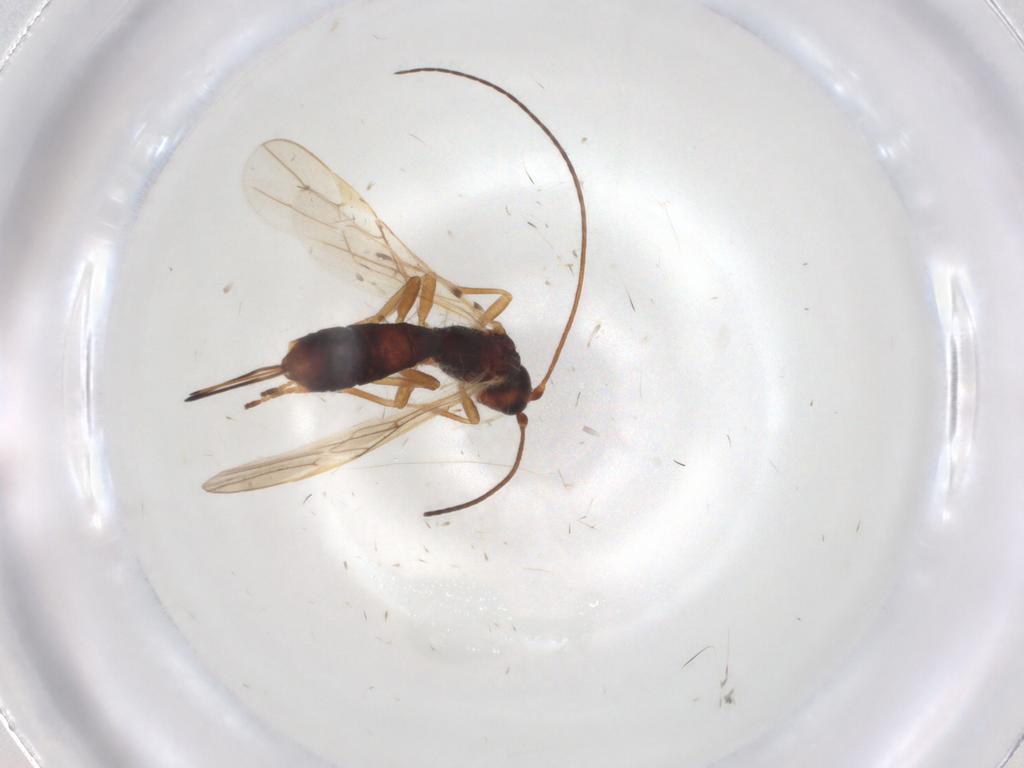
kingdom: Animalia
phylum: Arthropoda
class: Insecta
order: Hymenoptera
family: Braconidae
